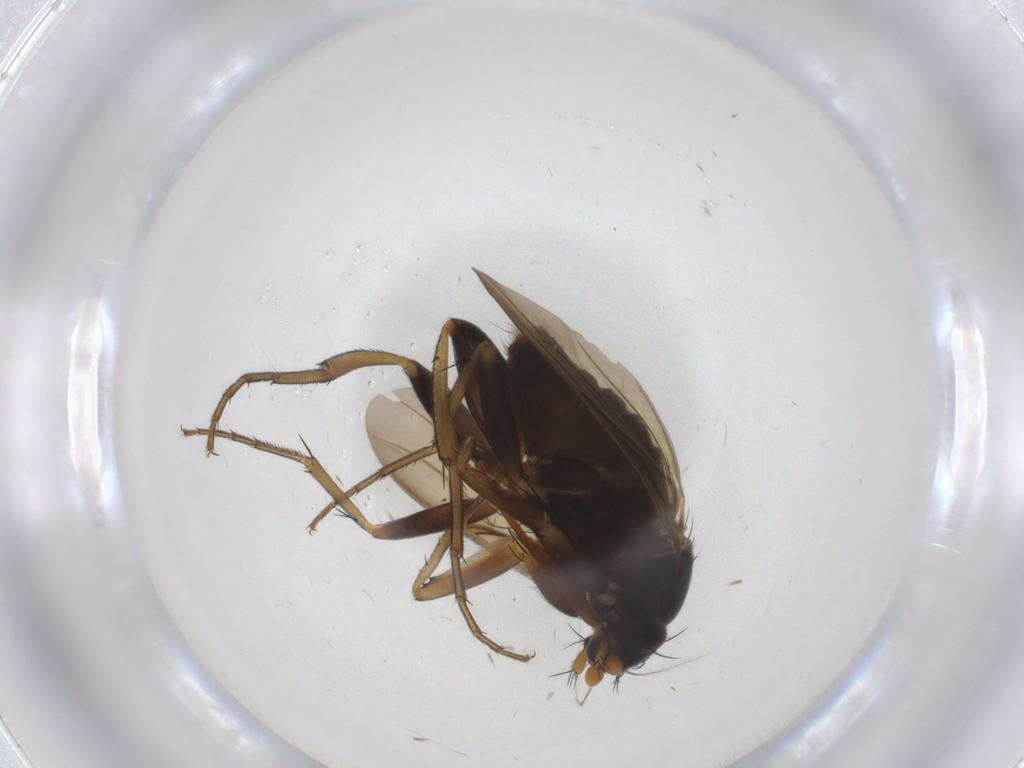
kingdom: Animalia
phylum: Arthropoda
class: Insecta
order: Diptera
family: Phoridae
